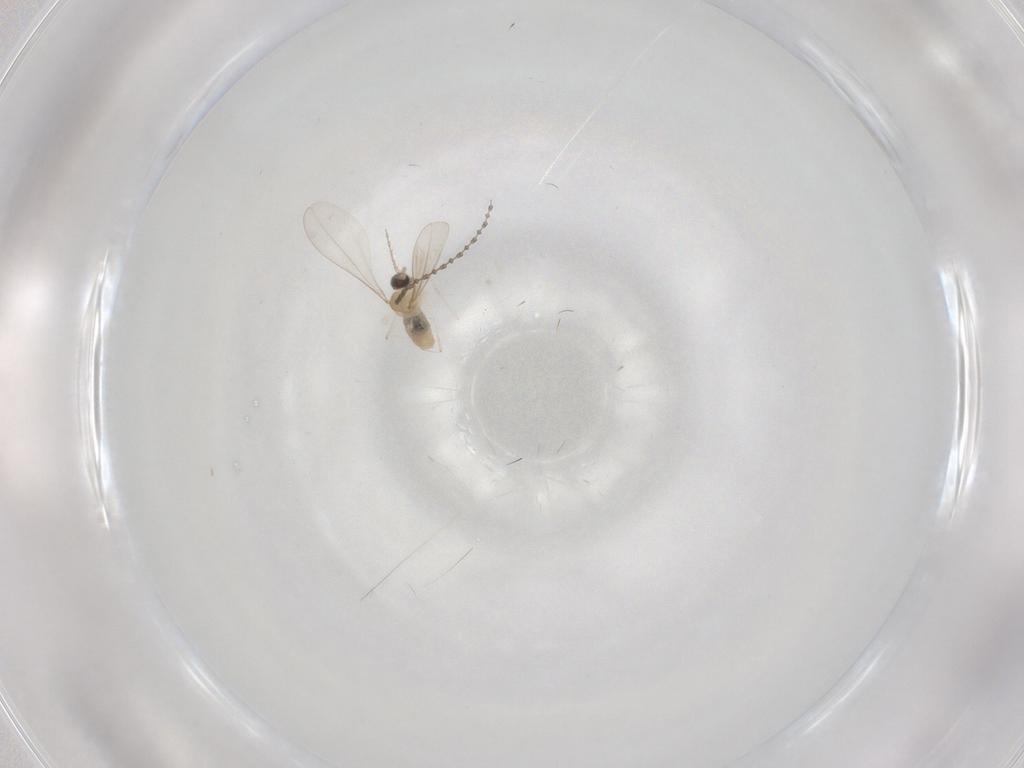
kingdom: Animalia
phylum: Arthropoda
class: Insecta
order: Diptera
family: Cecidomyiidae
